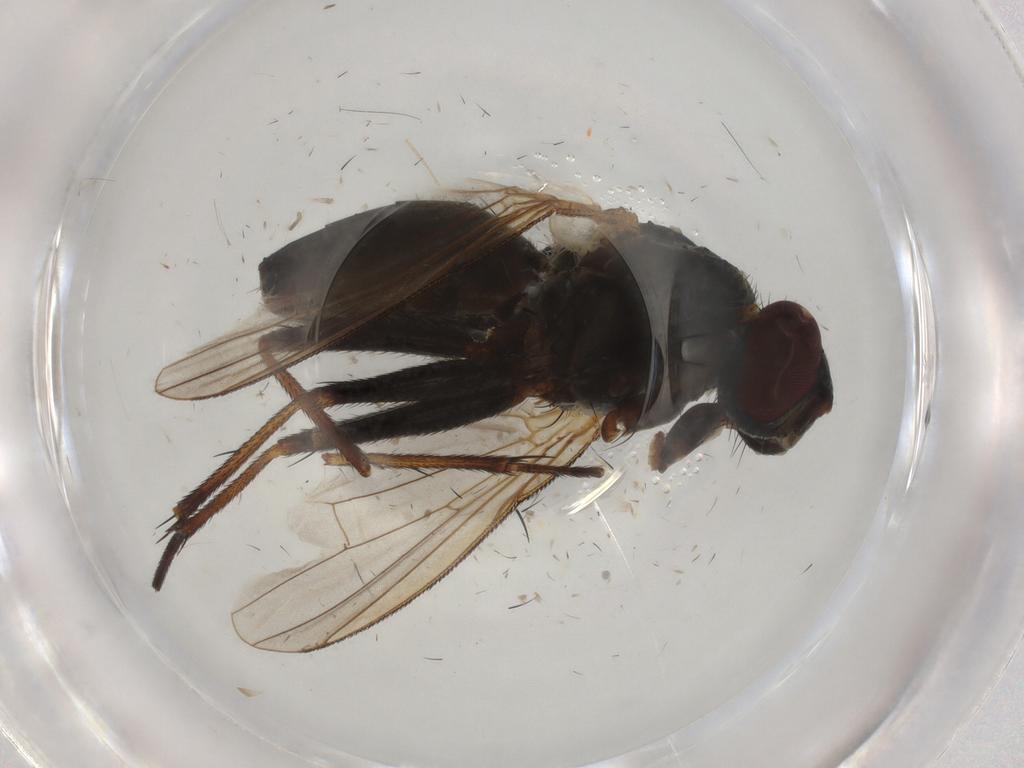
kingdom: Animalia
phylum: Arthropoda
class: Insecta
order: Diptera
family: Muscidae
